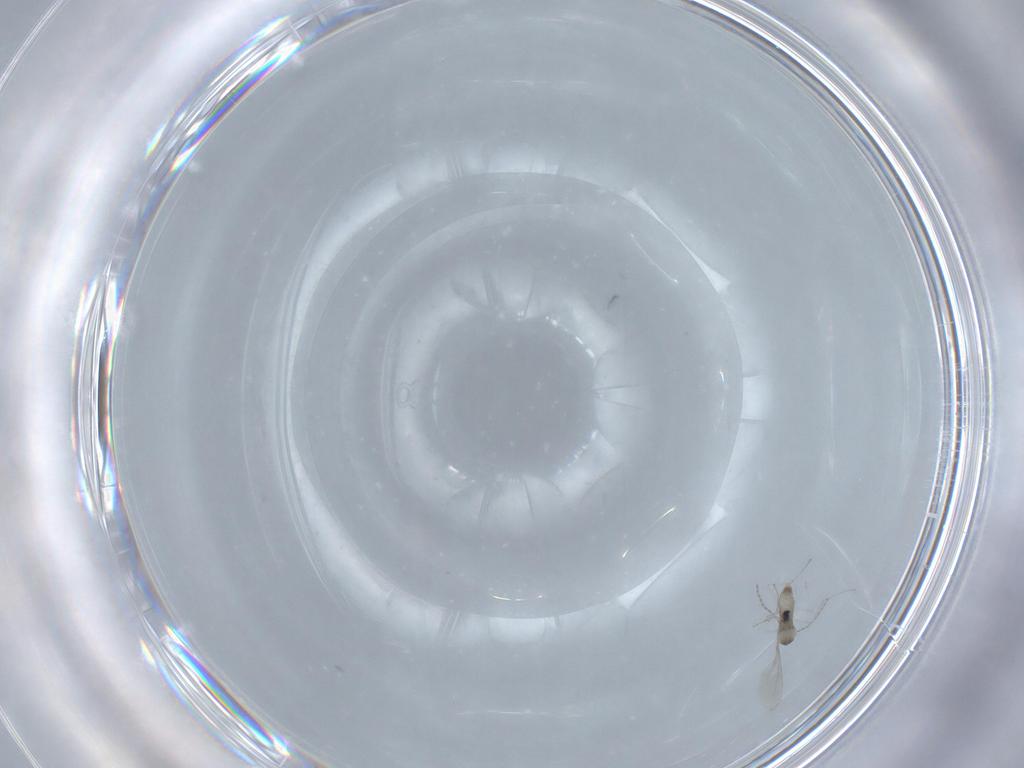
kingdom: Animalia
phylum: Arthropoda
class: Insecta
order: Diptera
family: Cecidomyiidae
